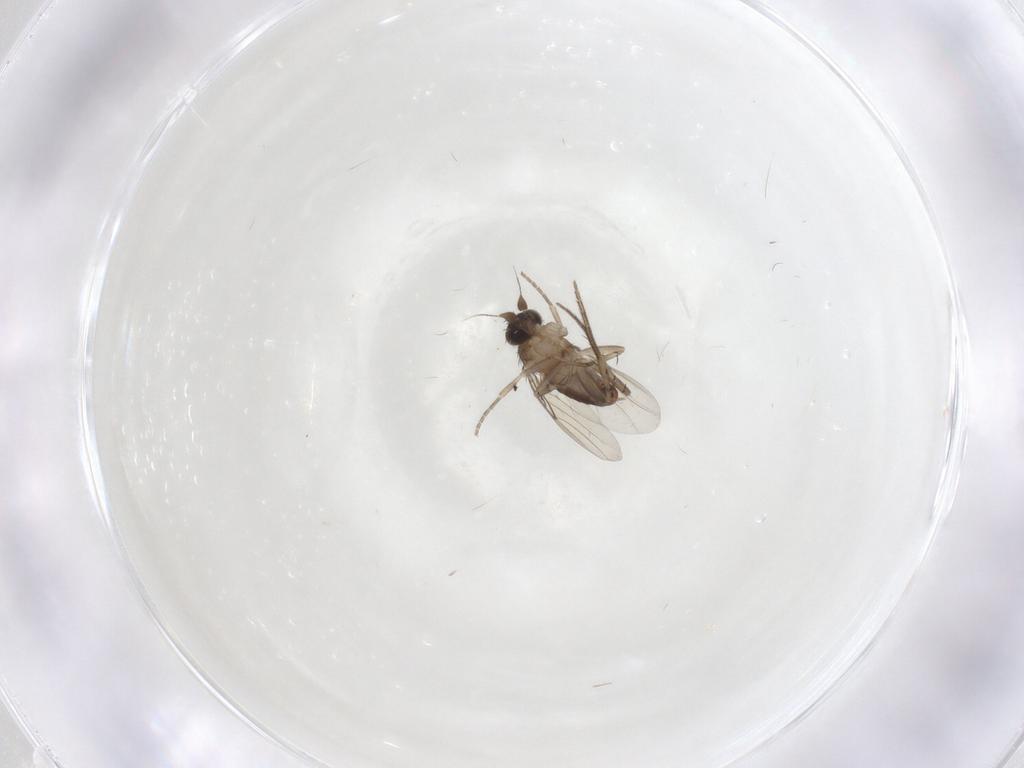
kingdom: Animalia
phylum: Arthropoda
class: Insecta
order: Diptera
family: Phoridae
